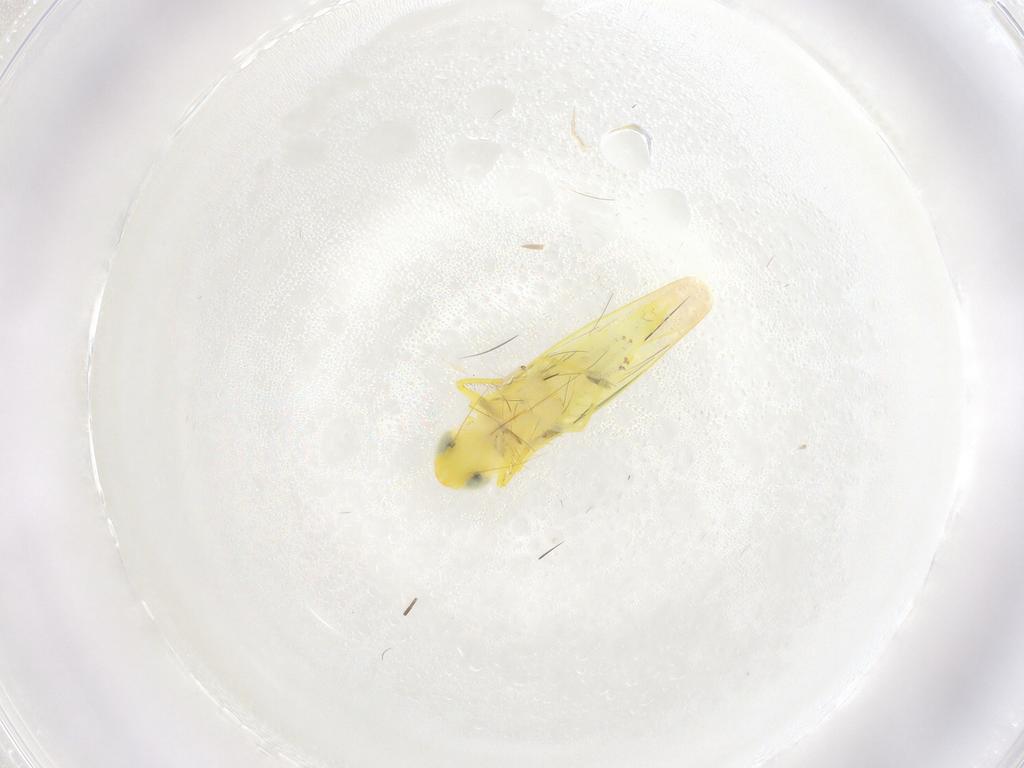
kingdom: Animalia
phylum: Arthropoda
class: Insecta
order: Hemiptera
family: Cicadellidae
